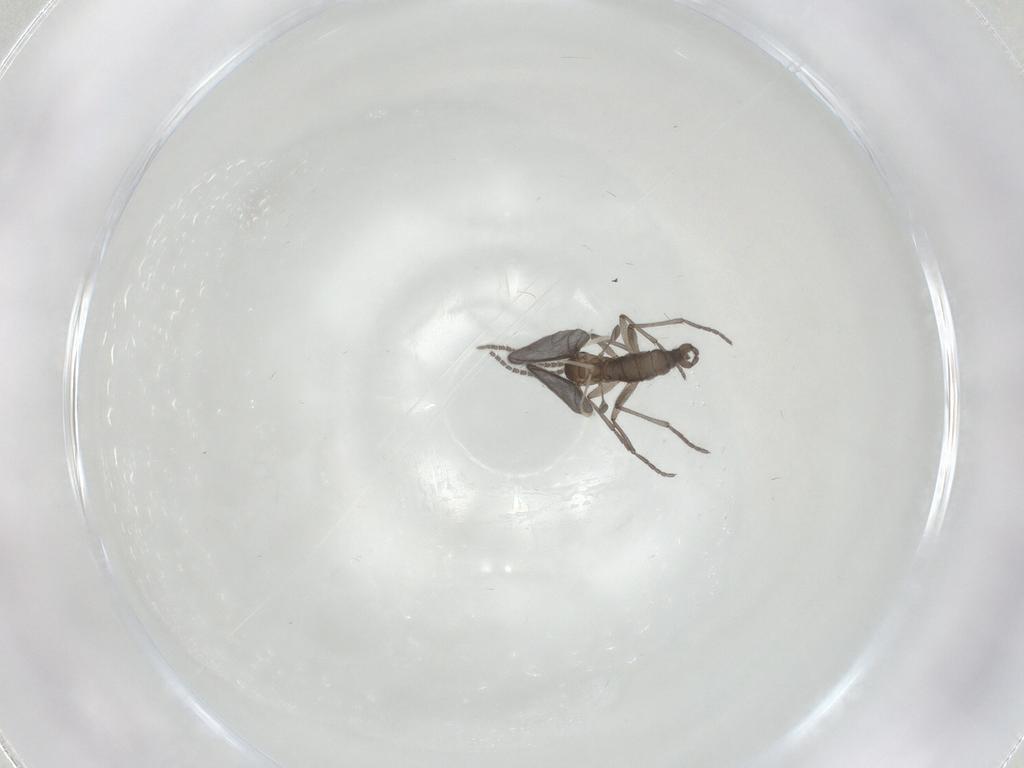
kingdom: Animalia
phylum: Arthropoda
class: Insecta
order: Diptera
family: Sciaridae
